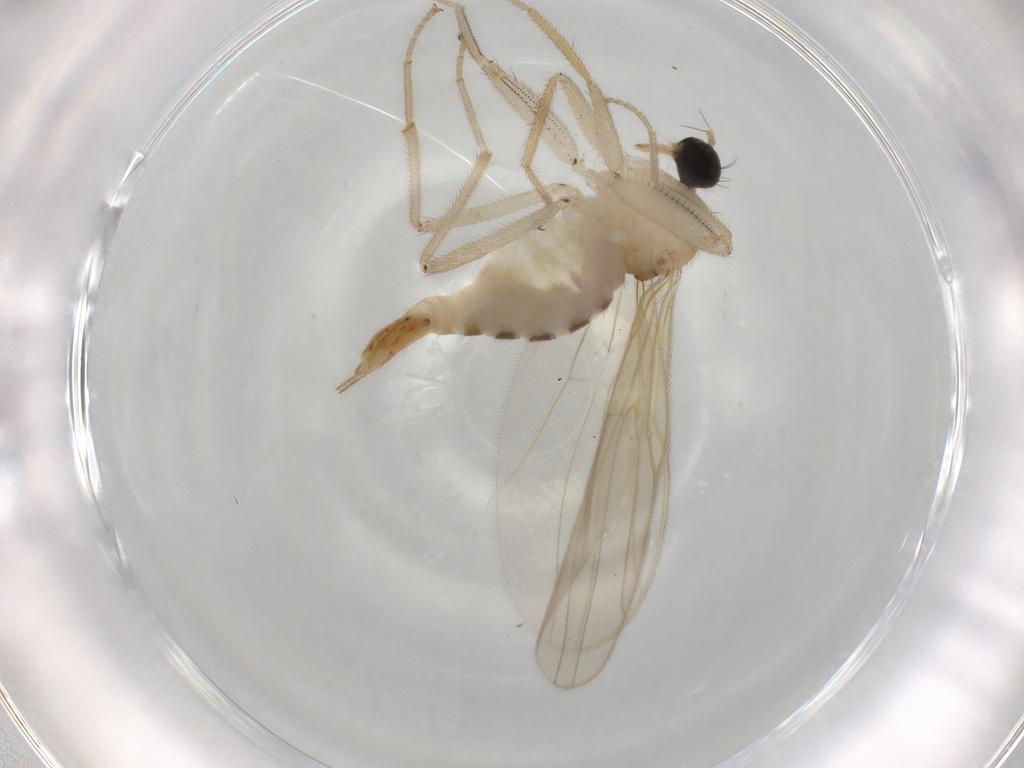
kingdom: Animalia
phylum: Arthropoda
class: Insecta
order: Diptera
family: Hybotidae
